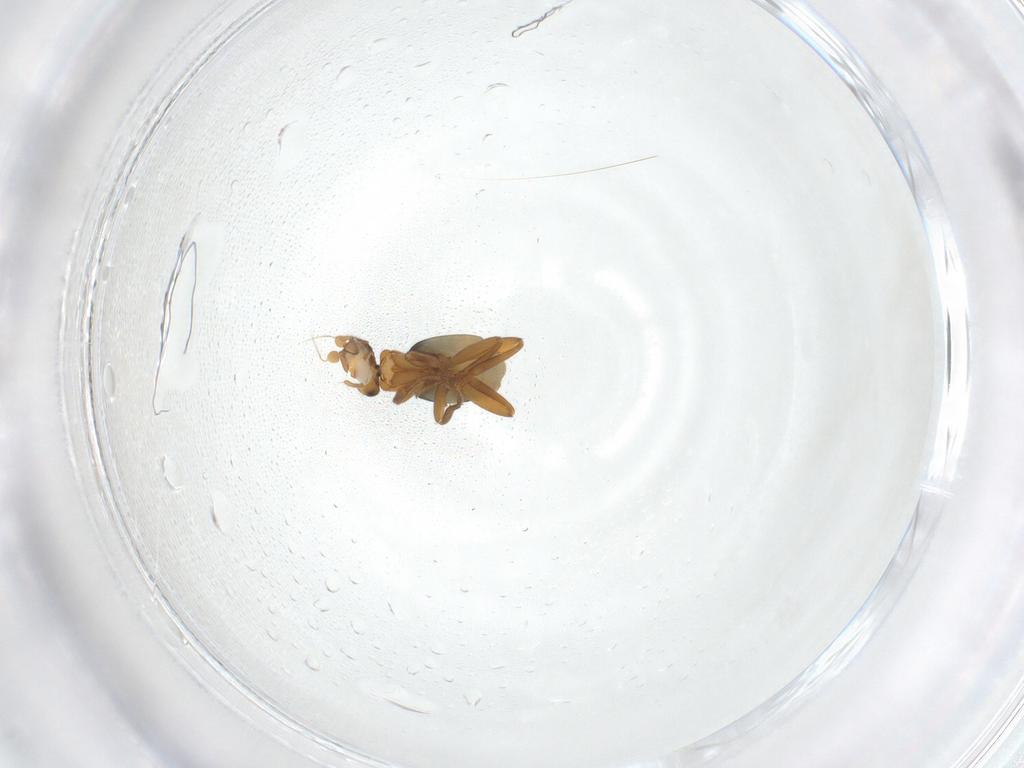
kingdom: Animalia
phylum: Arthropoda
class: Insecta
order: Diptera
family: Phoridae
